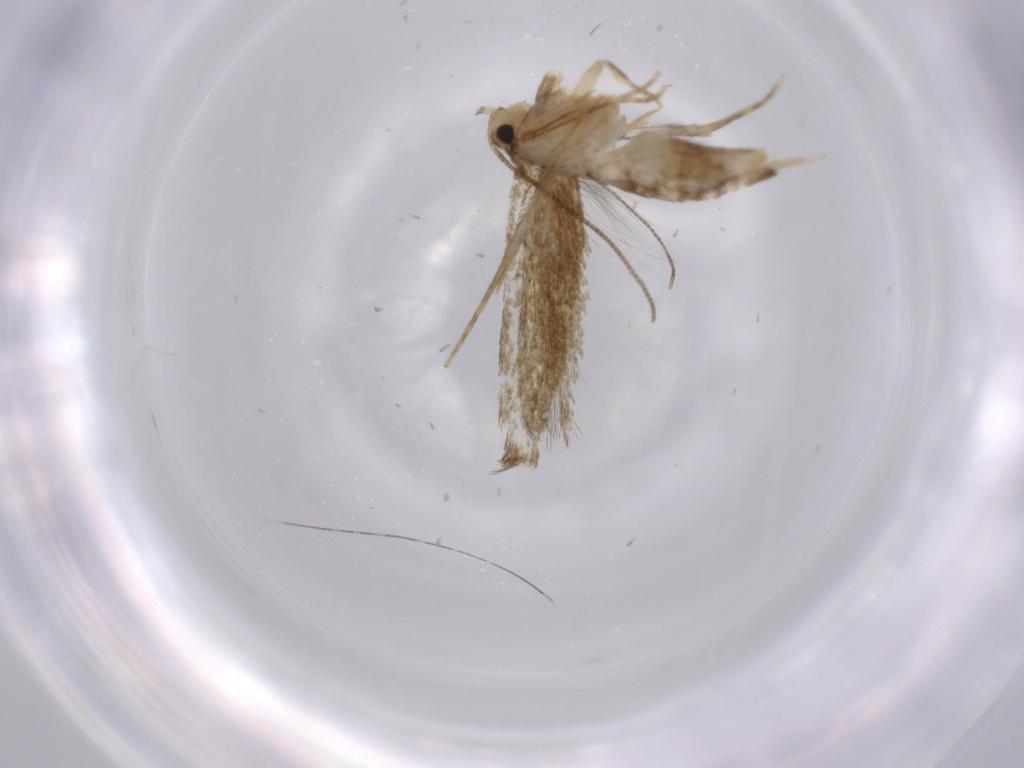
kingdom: Animalia
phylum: Arthropoda
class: Insecta
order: Lepidoptera
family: Tineidae
